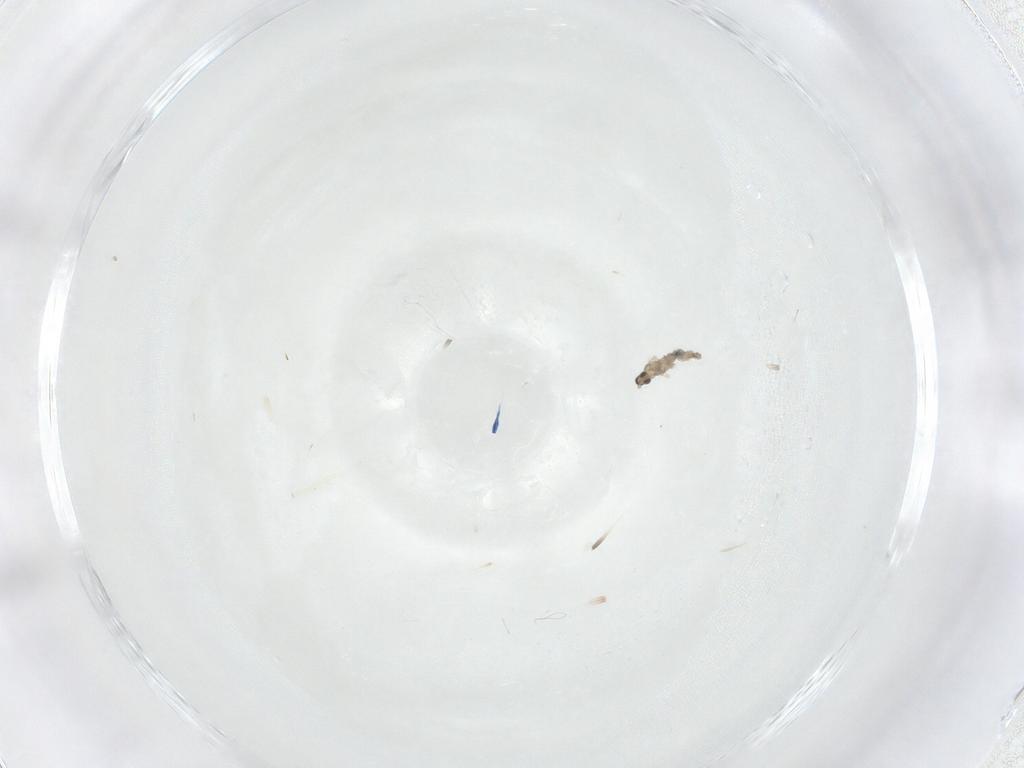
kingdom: Animalia
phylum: Arthropoda
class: Insecta
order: Diptera
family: Cecidomyiidae
